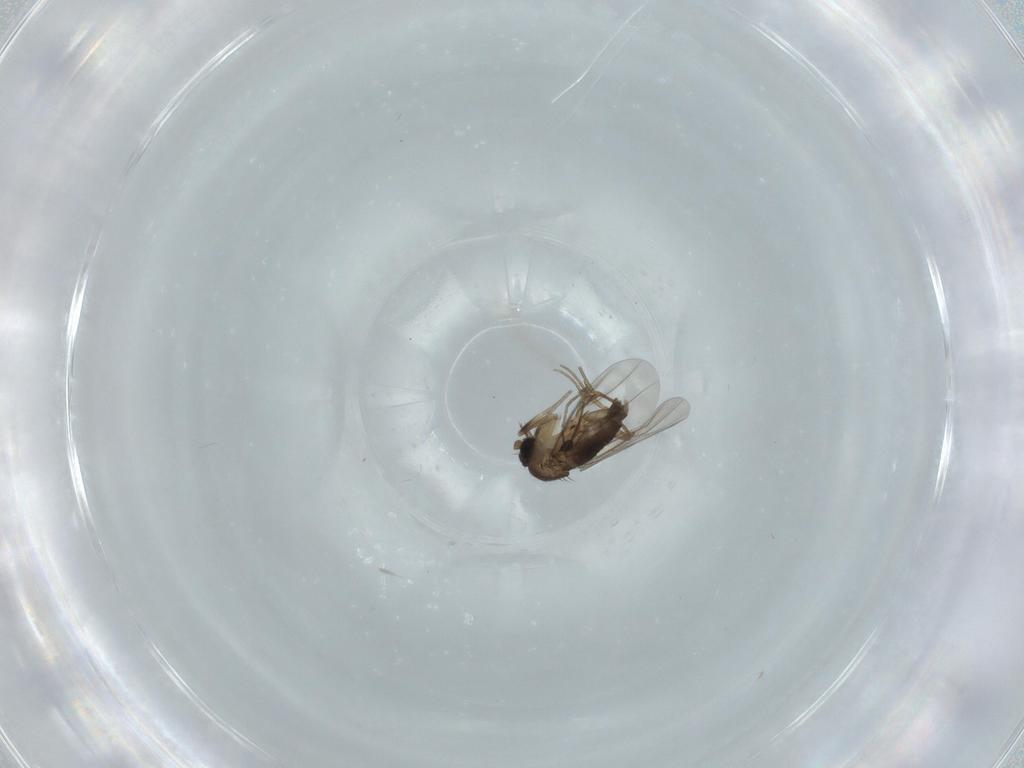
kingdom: Animalia
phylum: Arthropoda
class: Insecta
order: Diptera
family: Phoridae
